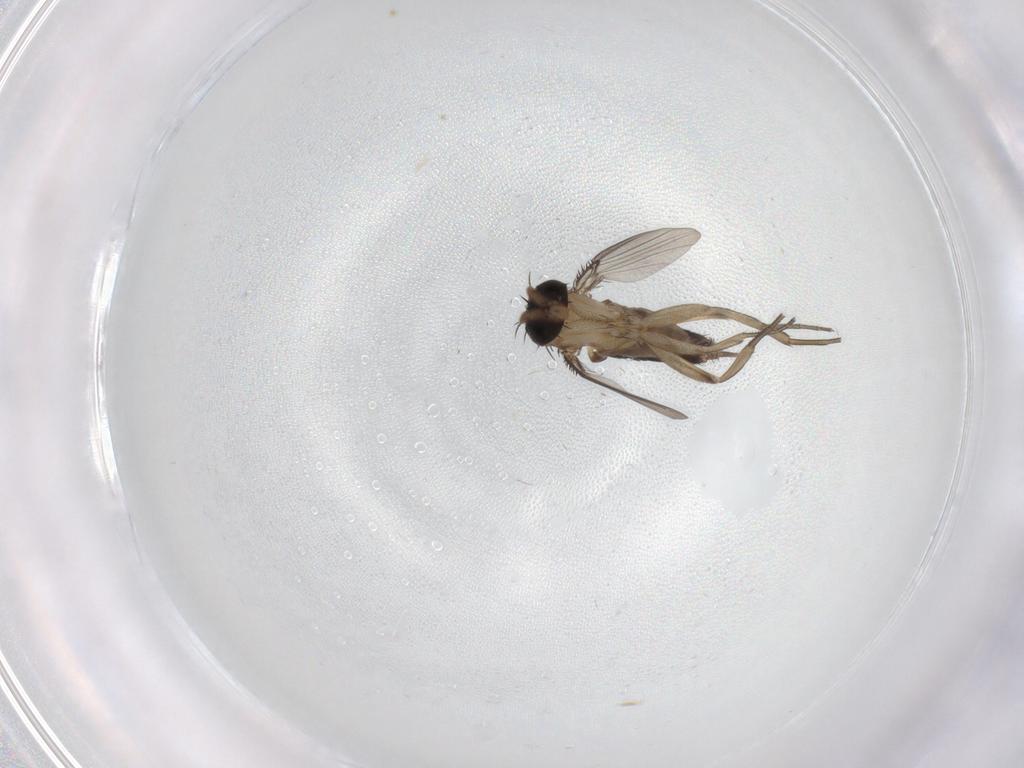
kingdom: Animalia
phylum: Arthropoda
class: Insecta
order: Diptera
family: Phoridae
